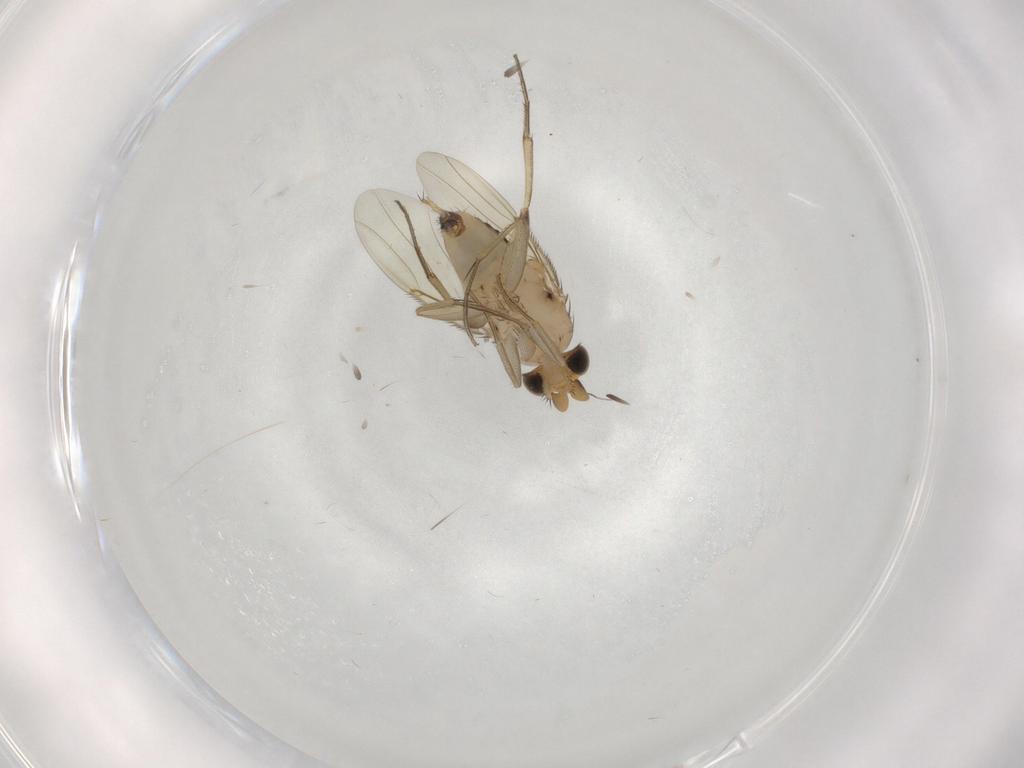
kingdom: Animalia
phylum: Arthropoda
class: Insecta
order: Diptera
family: Phoridae
